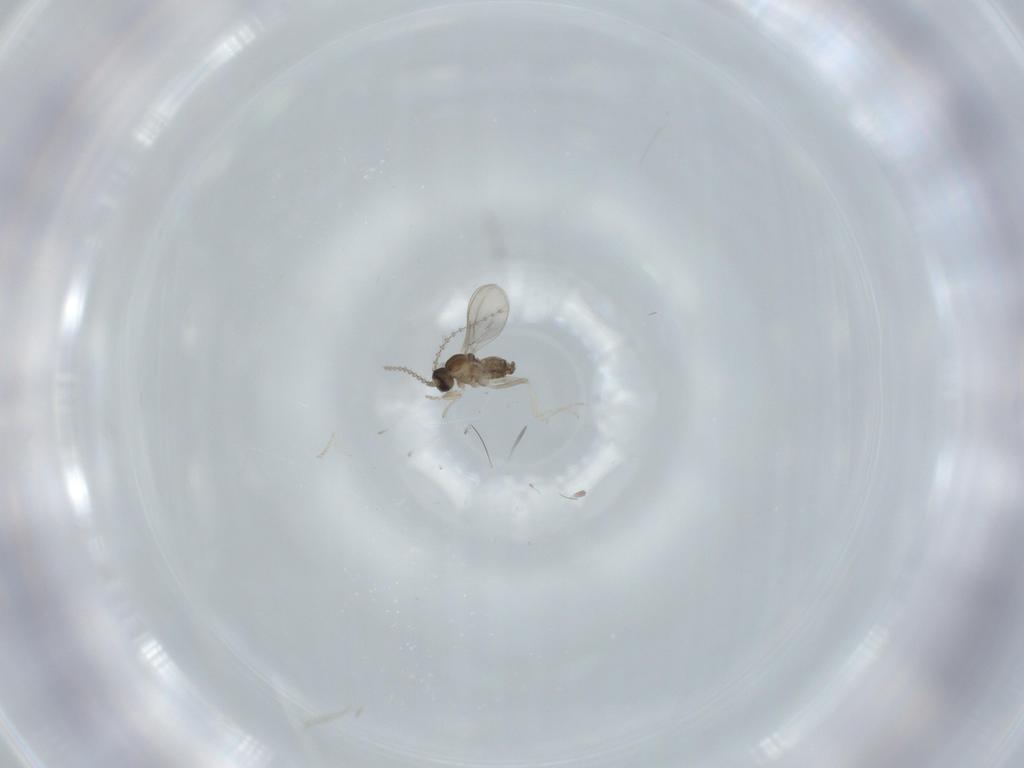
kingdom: Animalia
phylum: Arthropoda
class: Insecta
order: Diptera
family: Cecidomyiidae
